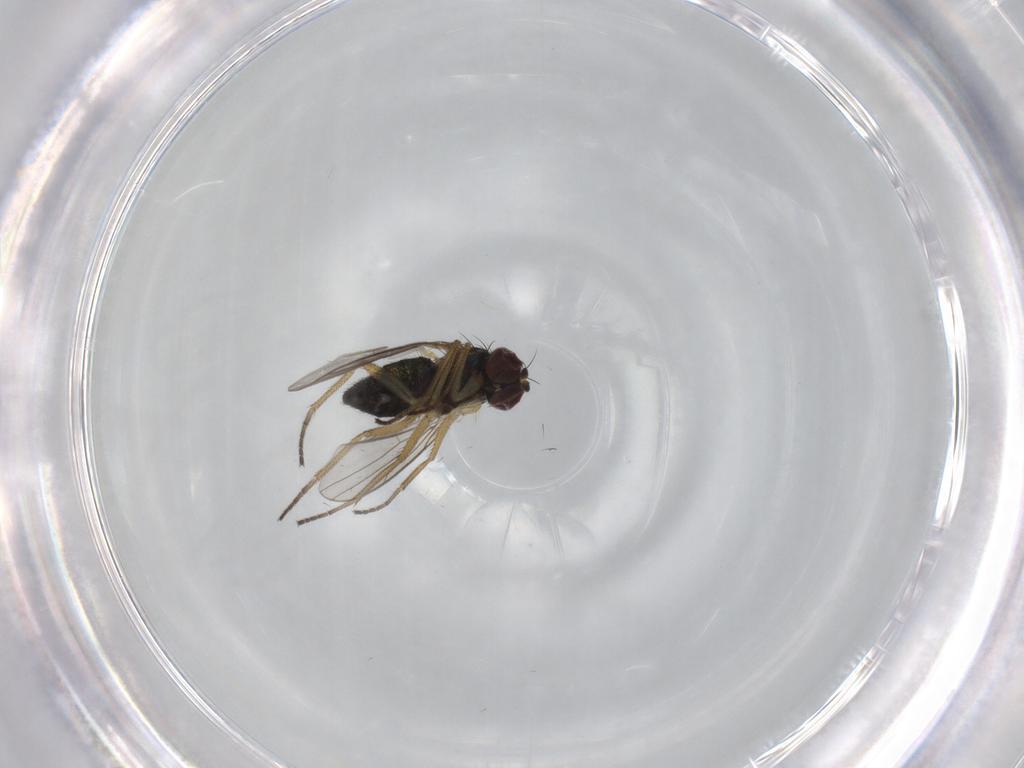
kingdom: Animalia
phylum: Arthropoda
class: Insecta
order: Diptera
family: Dolichopodidae
